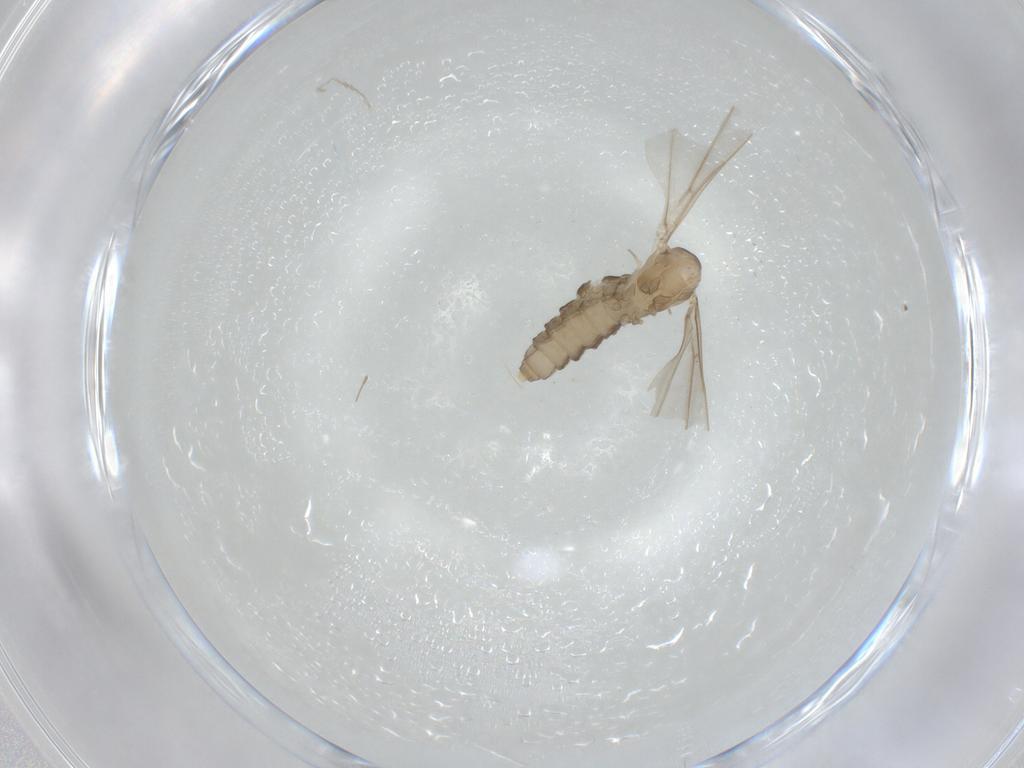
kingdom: Animalia
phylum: Arthropoda
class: Insecta
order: Diptera
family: Cecidomyiidae
